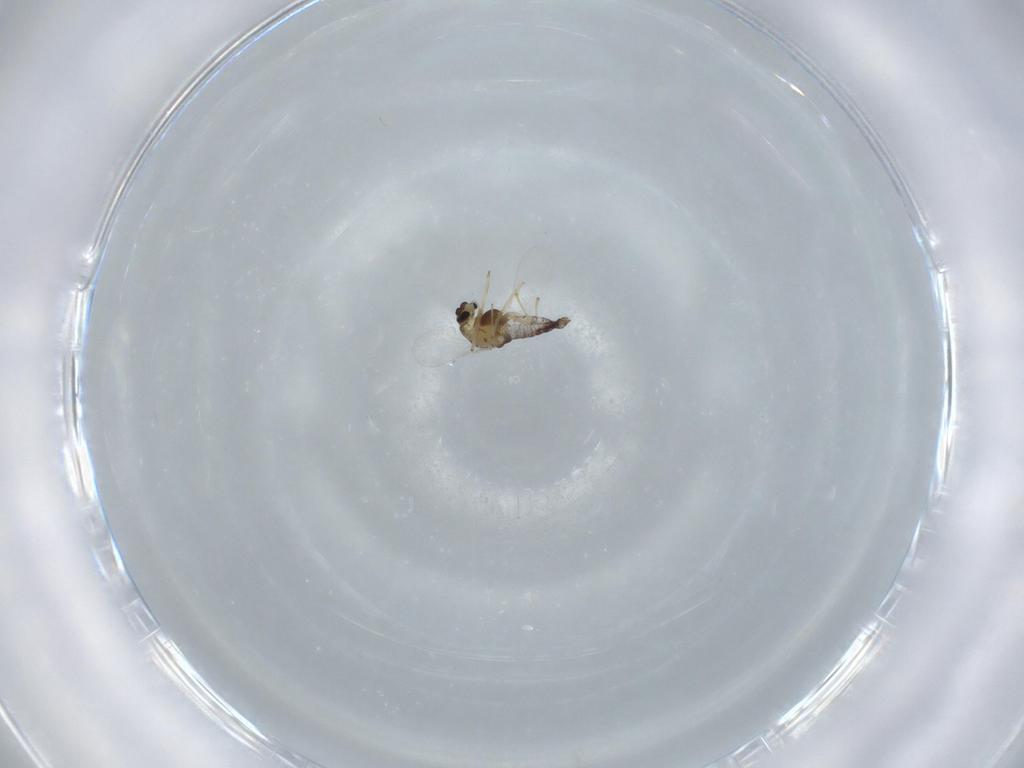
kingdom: Animalia
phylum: Arthropoda
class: Insecta
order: Diptera
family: Chironomidae
